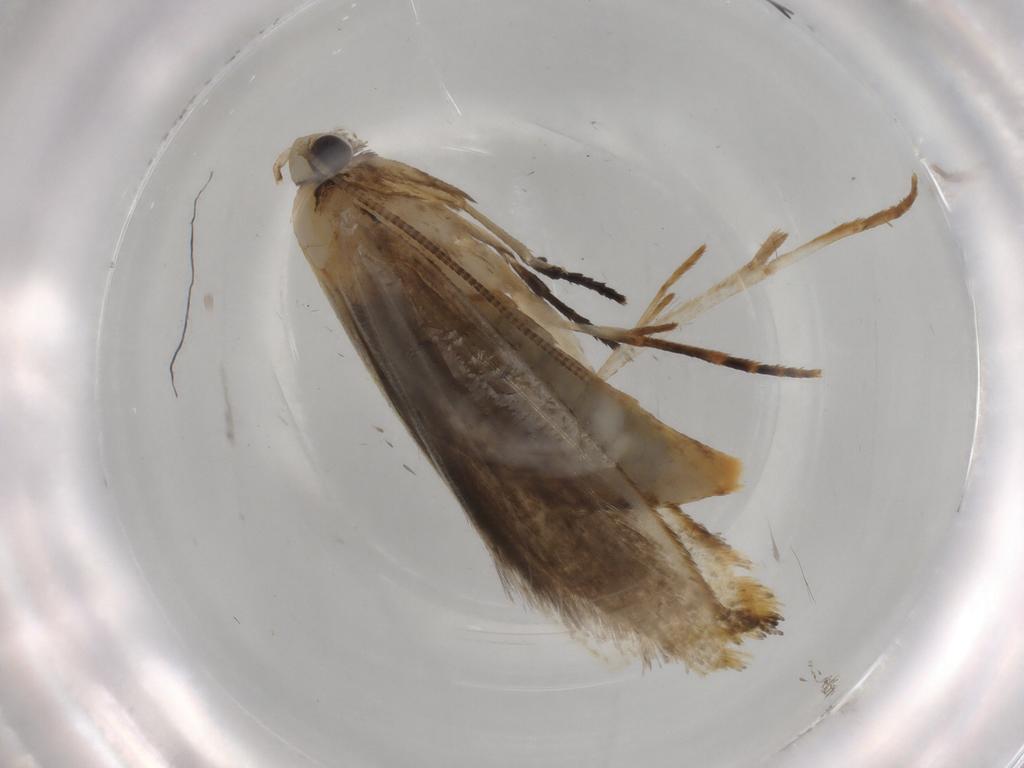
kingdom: Animalia
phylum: Arthropoda
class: Insecta
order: Lepidoptera
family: Tineidae
